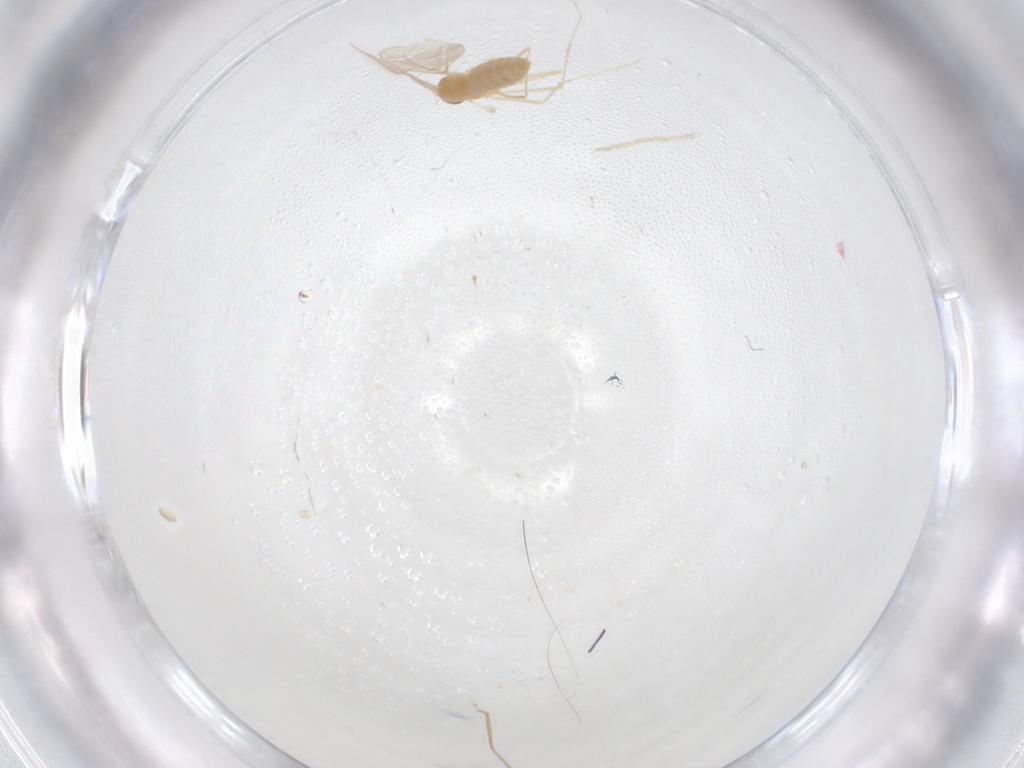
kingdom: Animalia
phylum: Arthropoda
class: Insecta
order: Diptera
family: Cecidomyiidae
